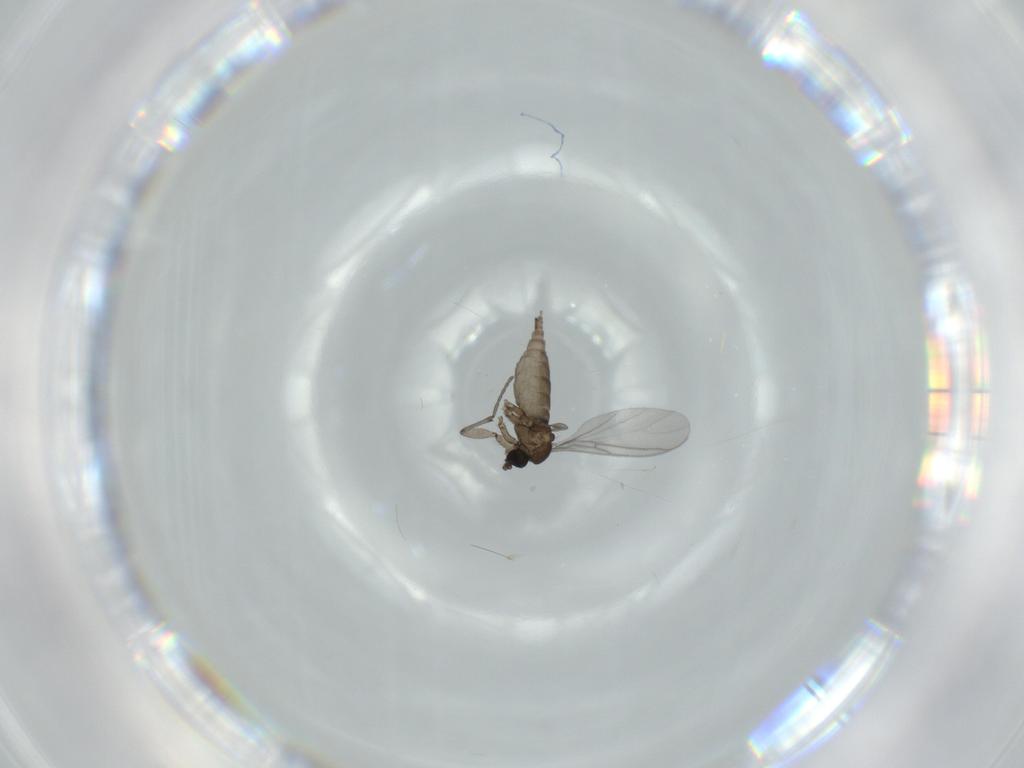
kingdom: Animalia
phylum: Arthropoda
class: Insecta
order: Diptera
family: Sciaridae
